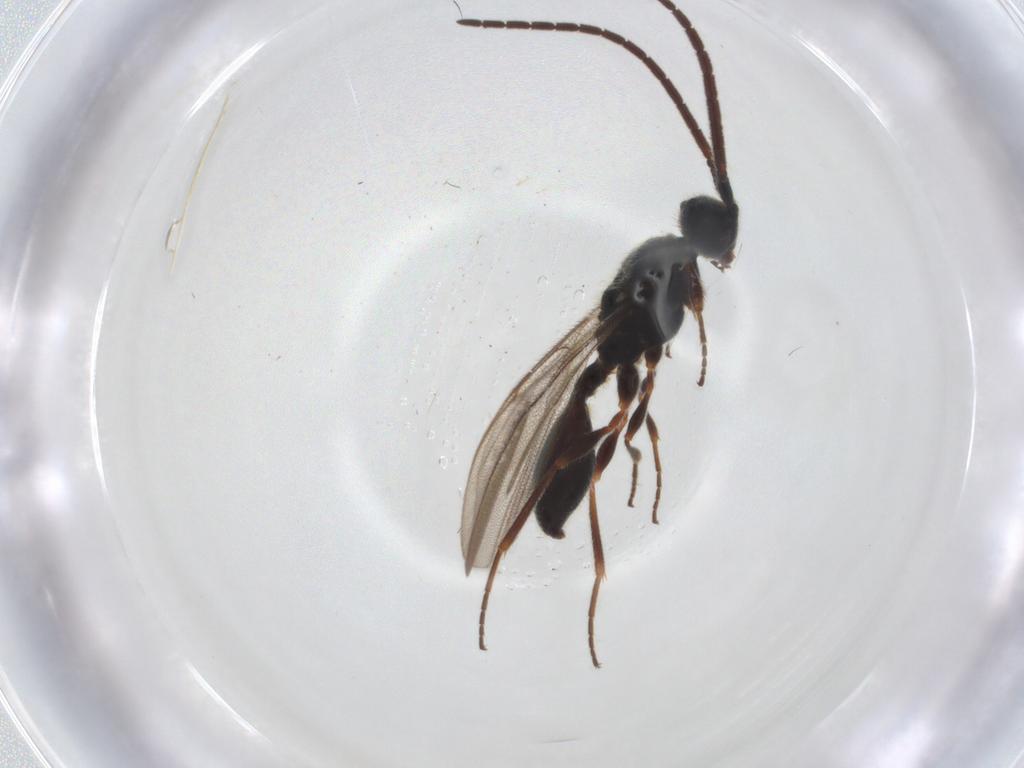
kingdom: Animalia
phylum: Arthropoda
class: Insecta
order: Hymenoptera
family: Diapriidae
